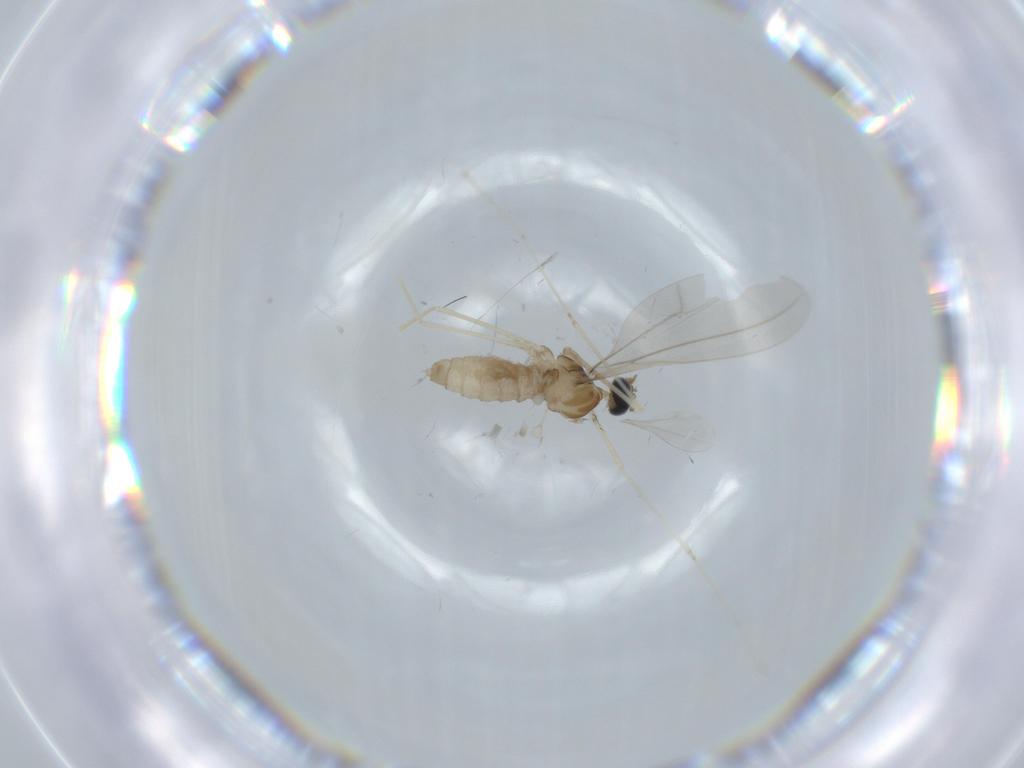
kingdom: Animalia
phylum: Arthropoda
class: Insecta
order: Diptera
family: Cecidomyiidae
